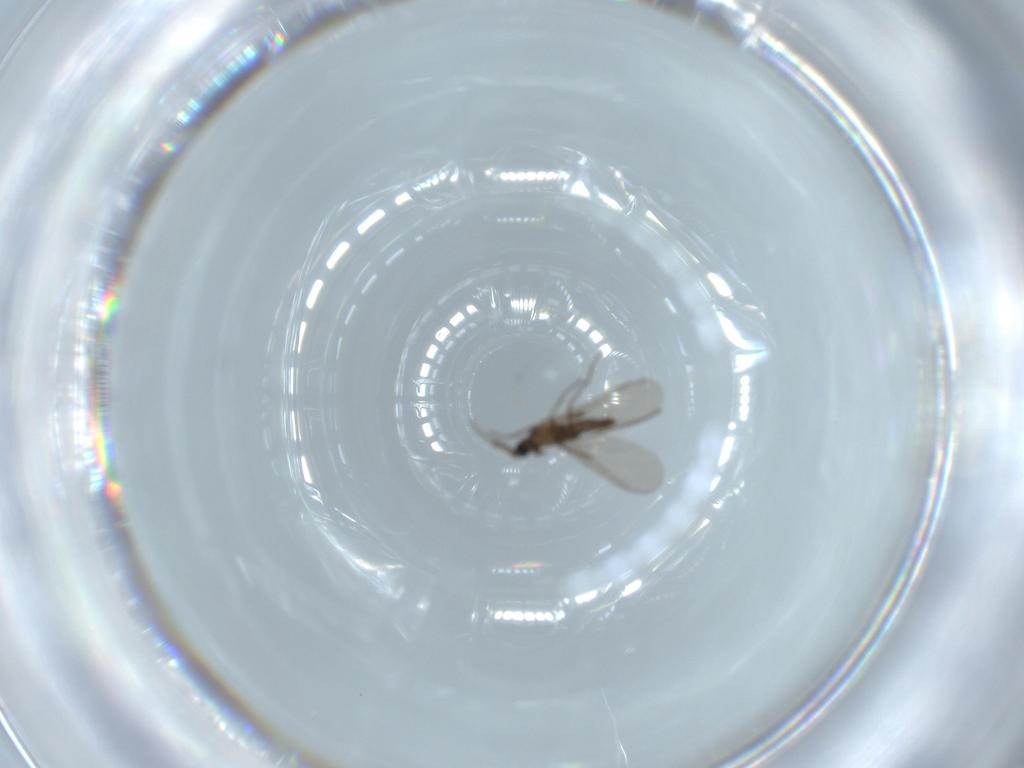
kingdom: Animalia
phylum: Arthropoda
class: Insecta
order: Diptera
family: Cecidomyiidae
